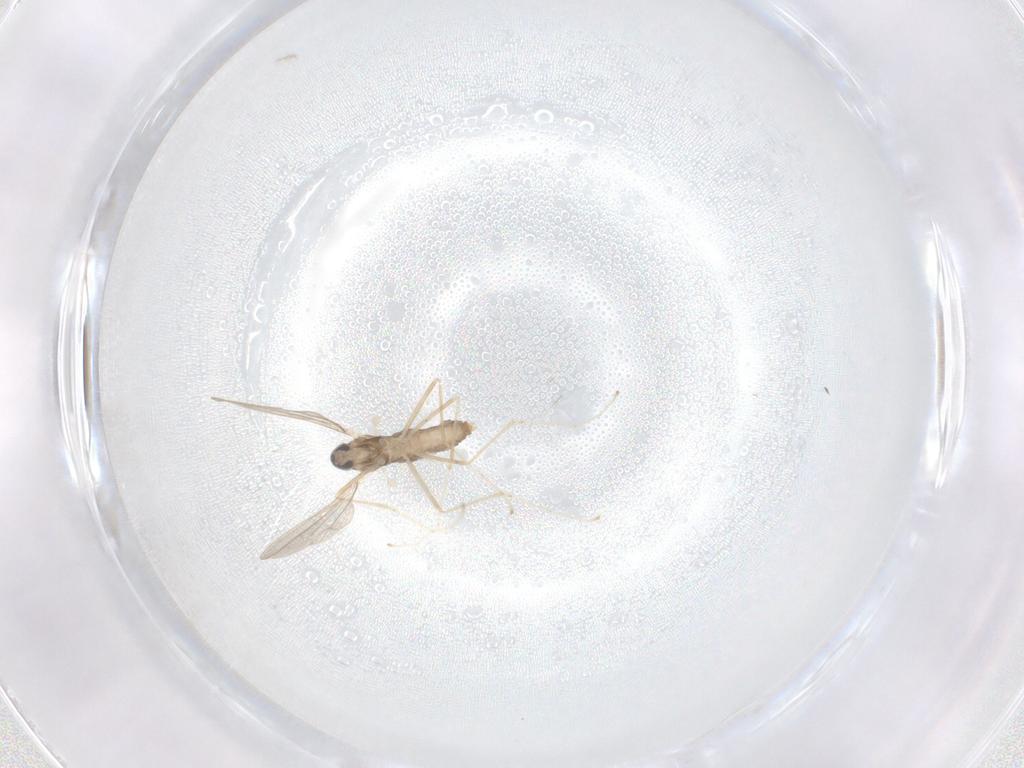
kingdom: Animalia
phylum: Arthropoda
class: Insecta
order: Diptera
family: Cecidomyiidae
